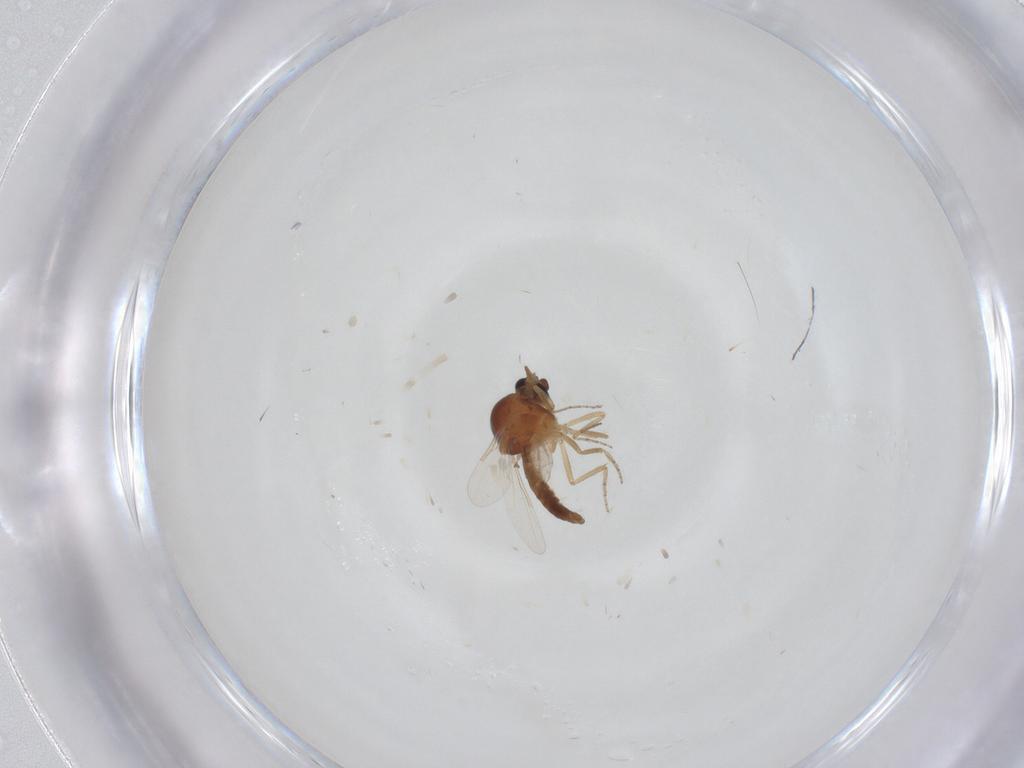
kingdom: Animalia
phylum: Arthropoda
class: Insecta
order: Diptera
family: Ceratopogonidae
